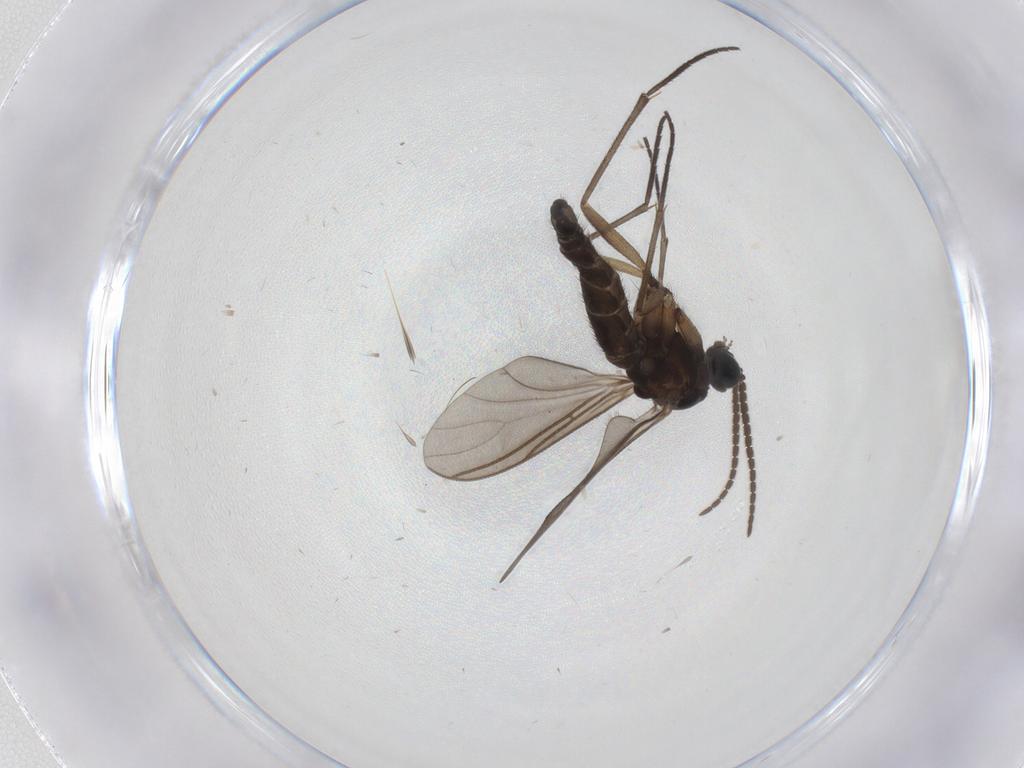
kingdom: Animalia
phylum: Arthropoda
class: Insecta
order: Diptera
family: Sciaridae
